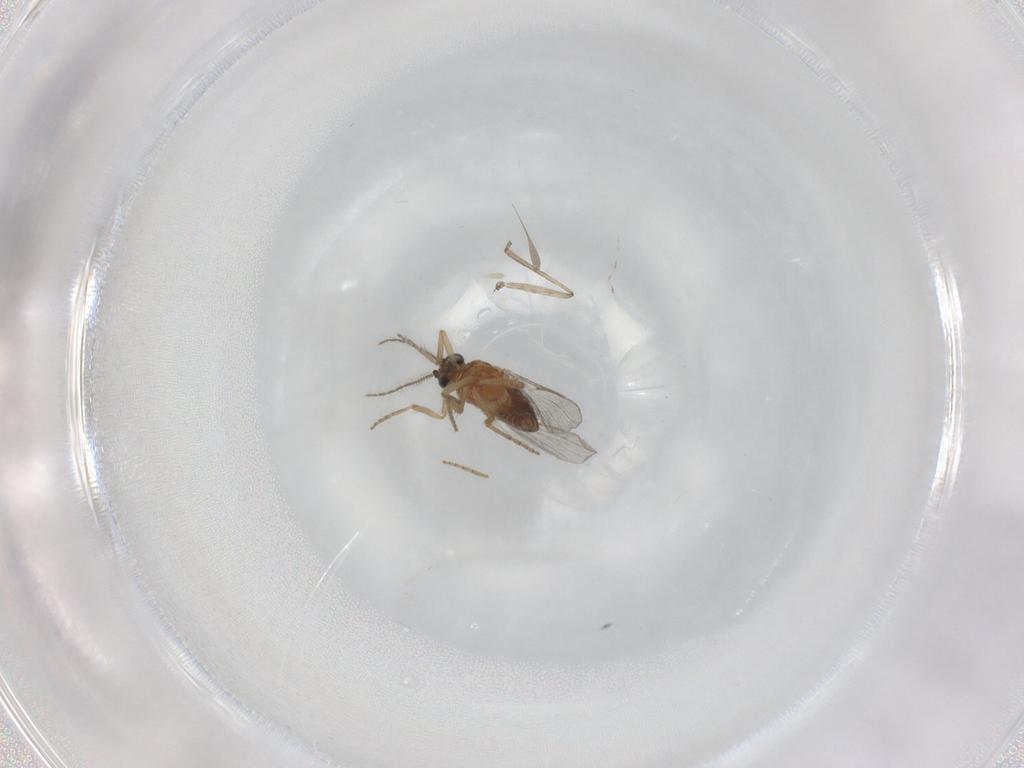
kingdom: Animalia
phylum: Arthropoda
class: Insecta
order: Diptera
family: Ceratopogonidae
